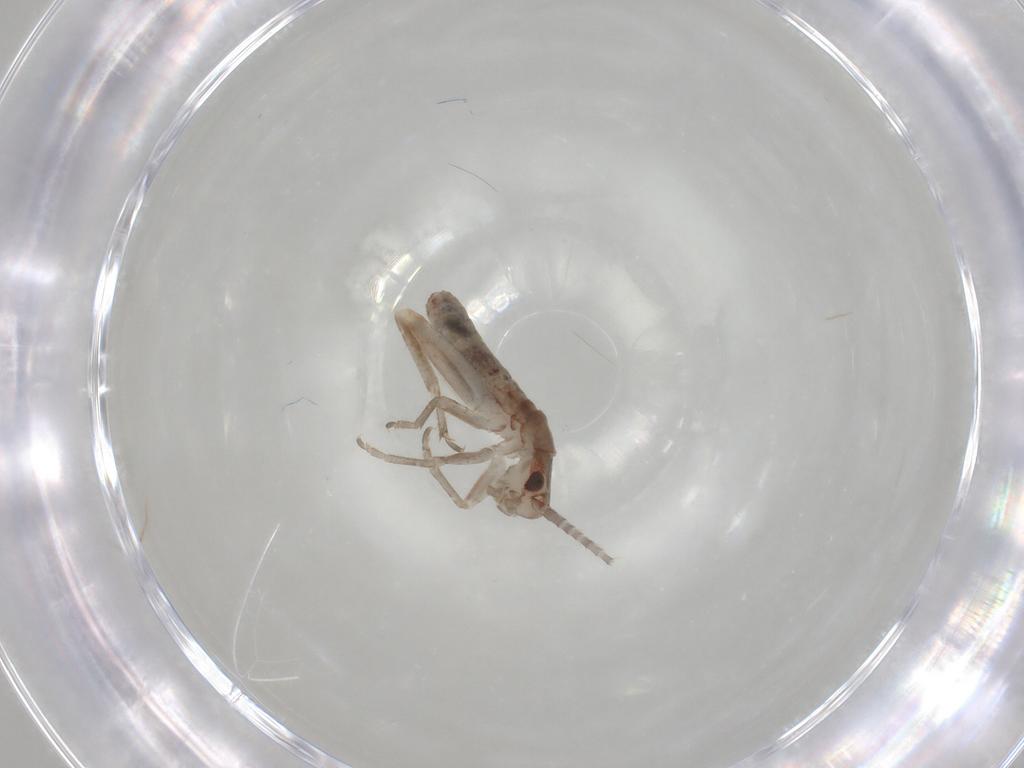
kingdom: Animalia
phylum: Arthropoda
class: Insecta
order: Orthoptera
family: Mogoplistidae
